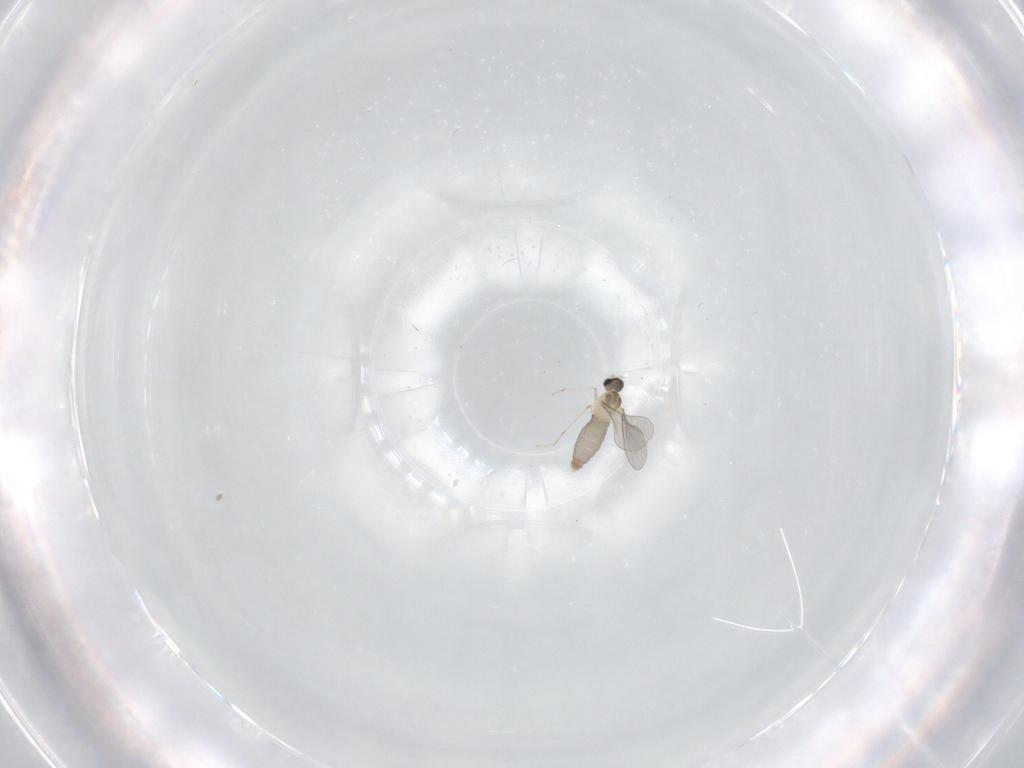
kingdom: Animalia
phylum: Arthropoda
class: Insecta
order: Diptera
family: Cecidomyiidae
